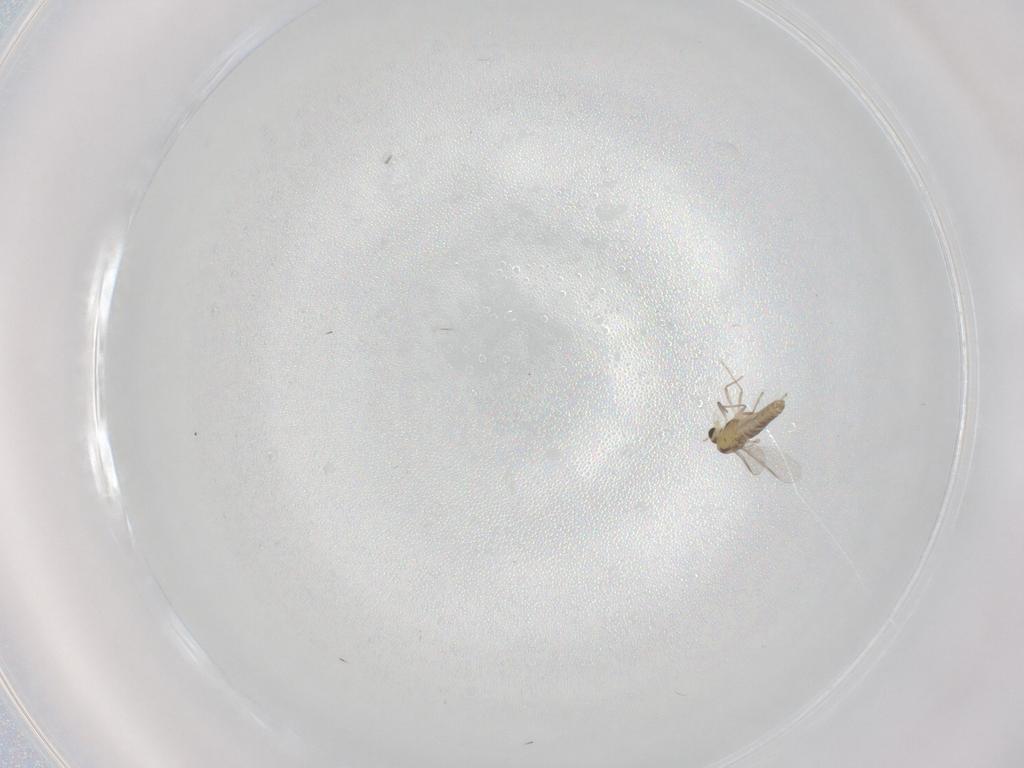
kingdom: Animalia
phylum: Arthropoda
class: Insecta
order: Diptera
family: Chironomidae
